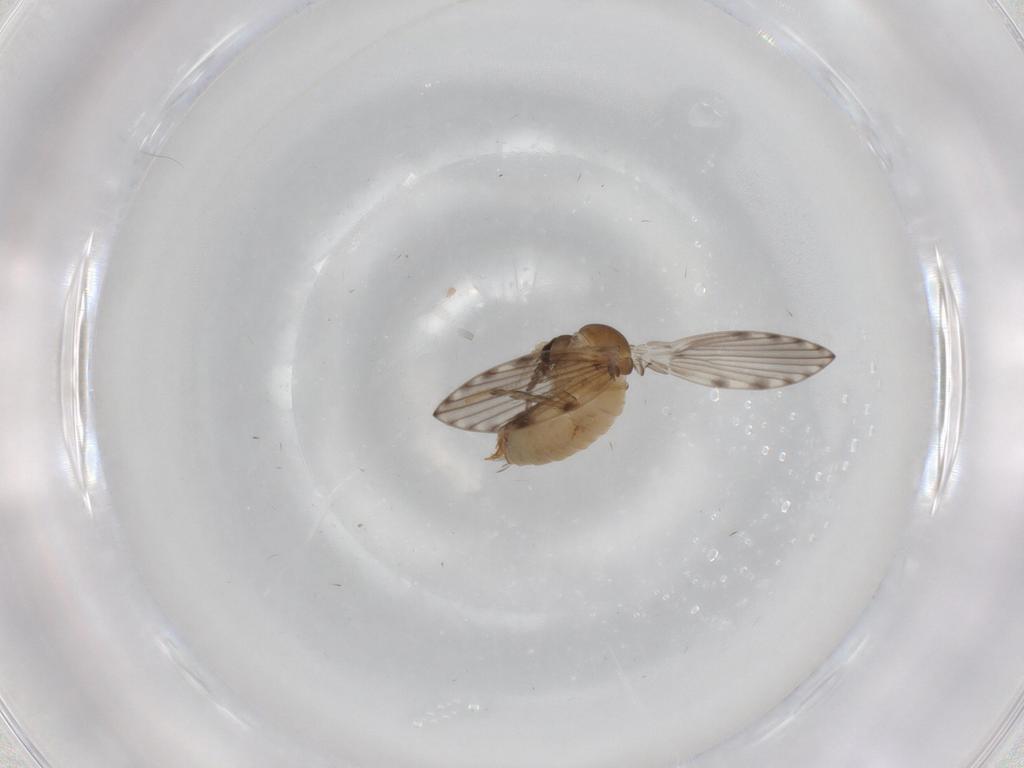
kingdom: Animalia
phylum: Arthropoda
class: Insecta
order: Diptera
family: Psychodidae
